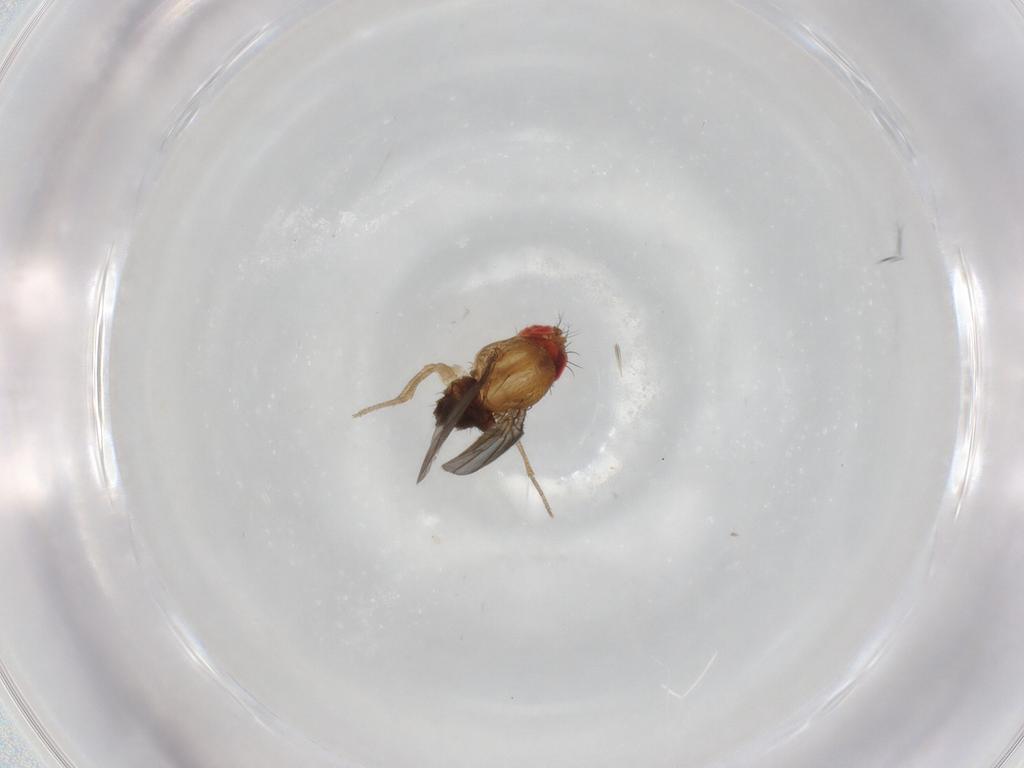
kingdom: Animalia
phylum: Arthropoda
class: Insecta
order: Diptera
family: Drosophilidae
